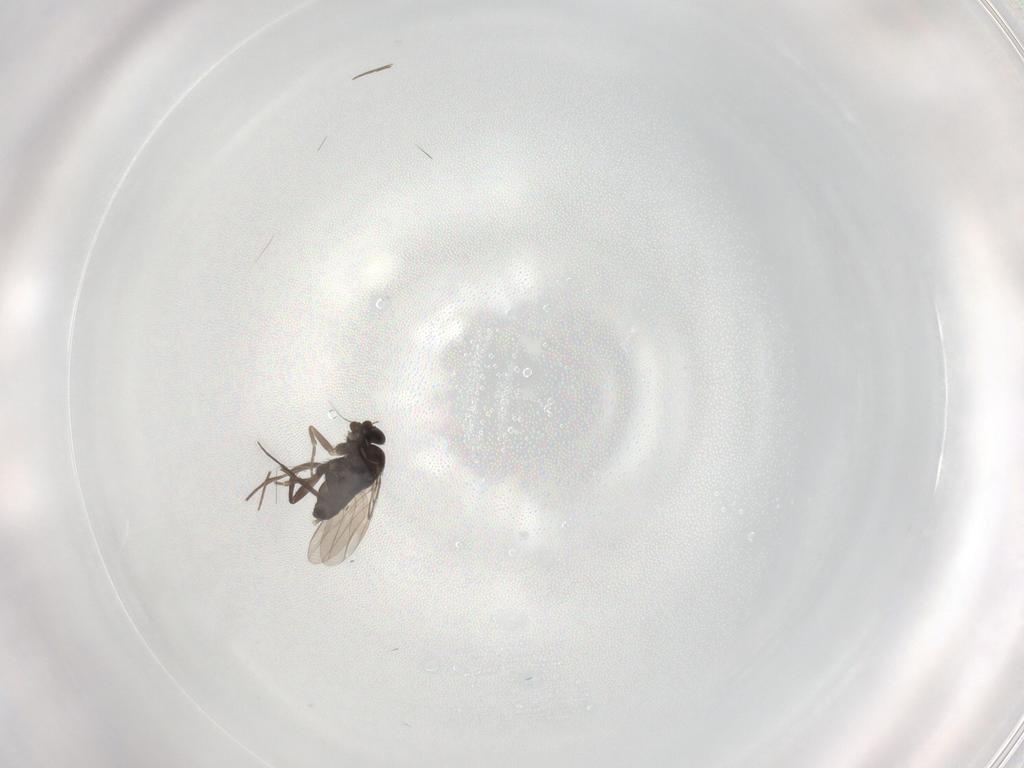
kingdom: Animalia
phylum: Arthropoda
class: Insecta
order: Diptera
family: Phoridae
